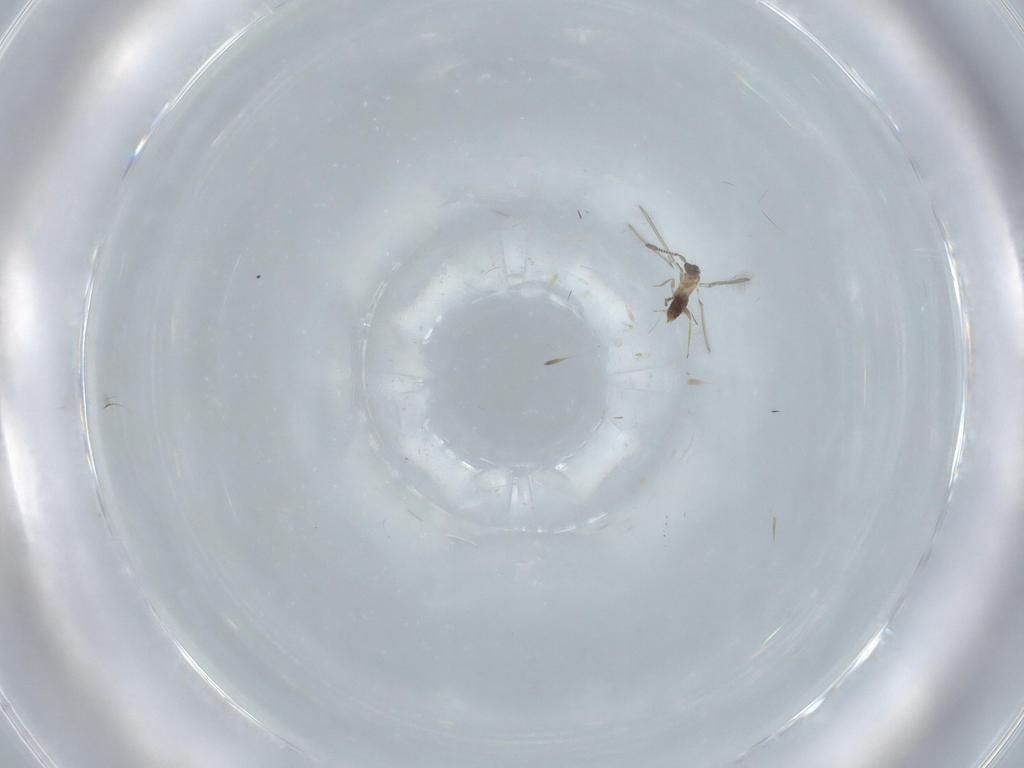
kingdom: Animalia
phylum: Arthropoda
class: Insecta
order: Hymenoptera
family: Mymaridae
